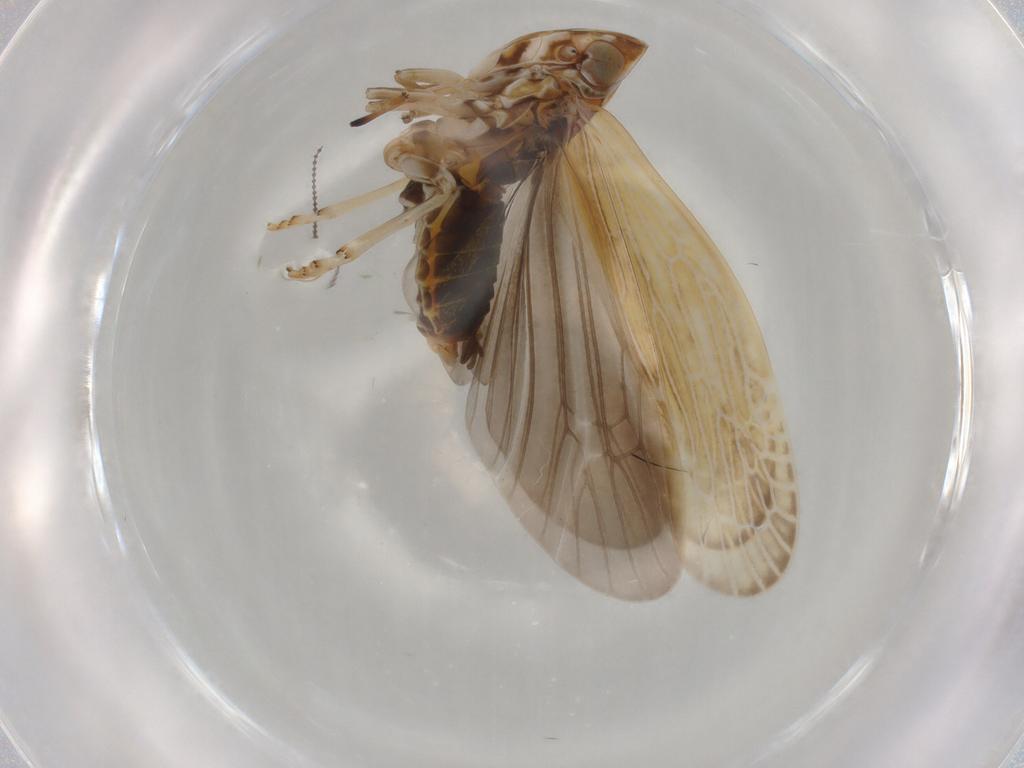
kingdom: Animalia
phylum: Arthropoda
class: Insecta
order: Hemiptera
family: Achilidae
